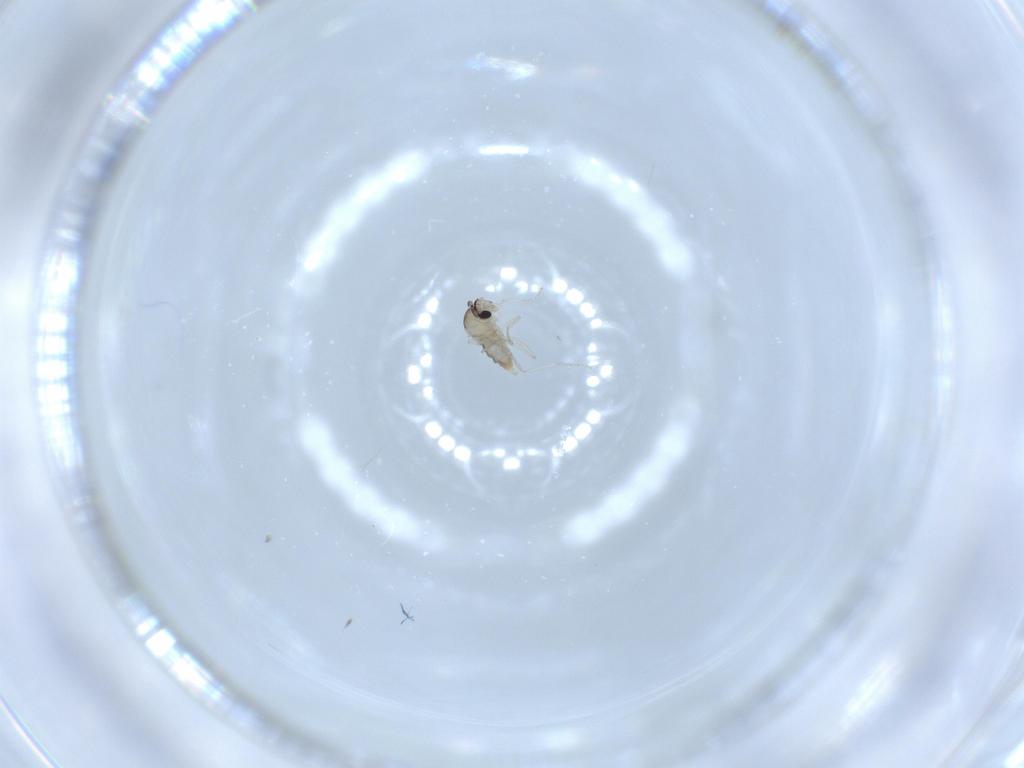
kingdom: Animalia
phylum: Arthropoda
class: Insecta
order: Diptera
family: Cecidomyiidae
